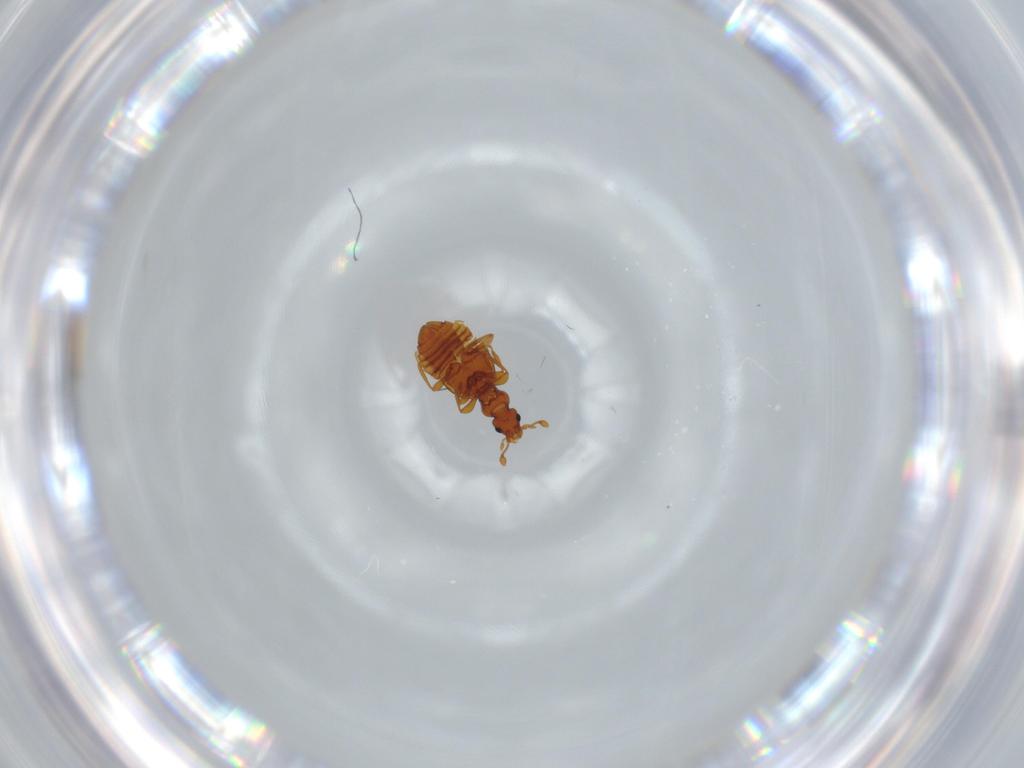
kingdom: Animalia
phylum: Arthropoda
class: Insecta
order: Coleoptera
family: Staphylinidae
